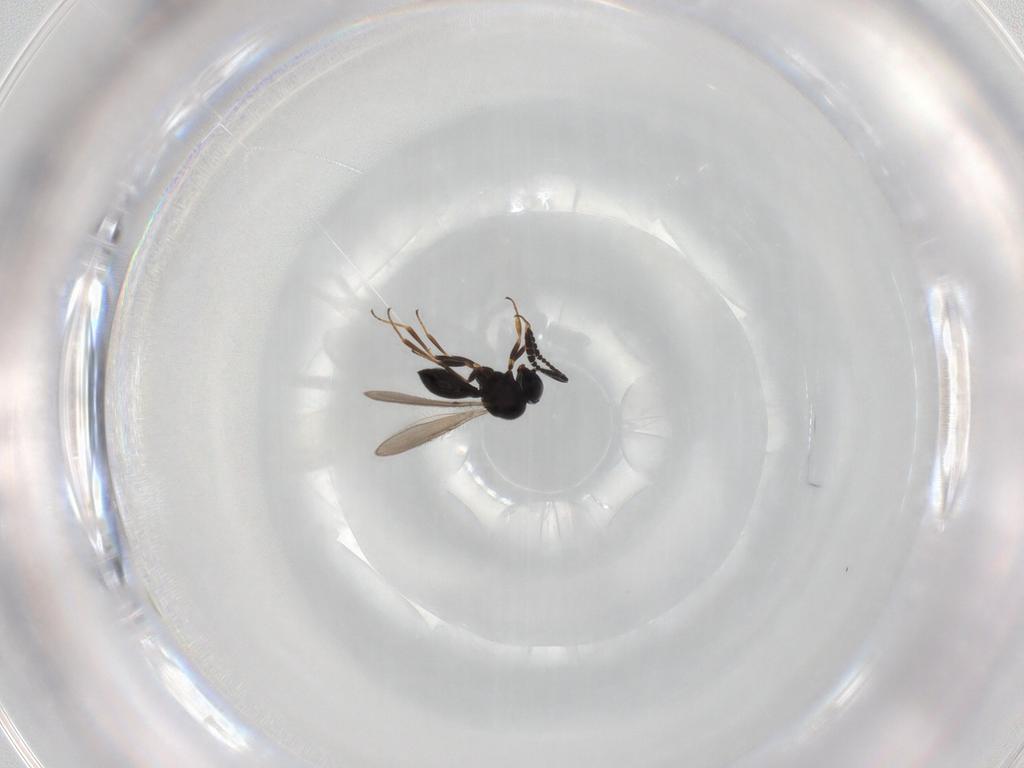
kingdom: Animalia
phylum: Arthropoda
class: Insecta
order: Hymenoptera
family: Scelionidae
